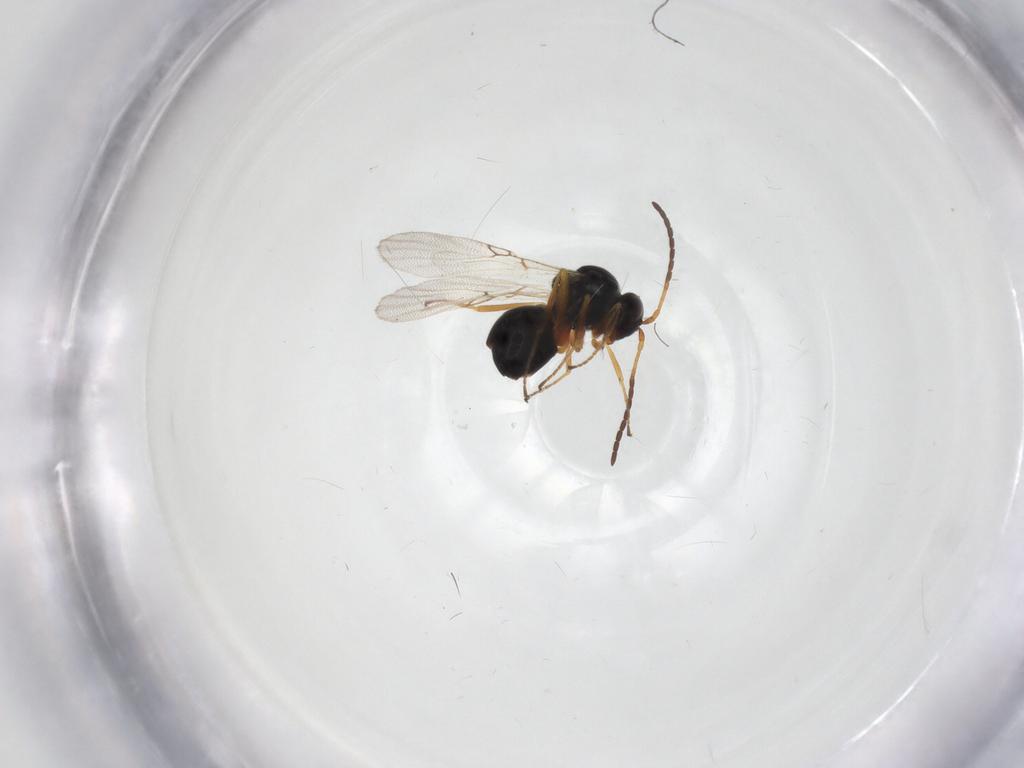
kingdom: Animalia
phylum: Arthropoda
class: Insecta
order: Hymenoptera
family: Figitidae
